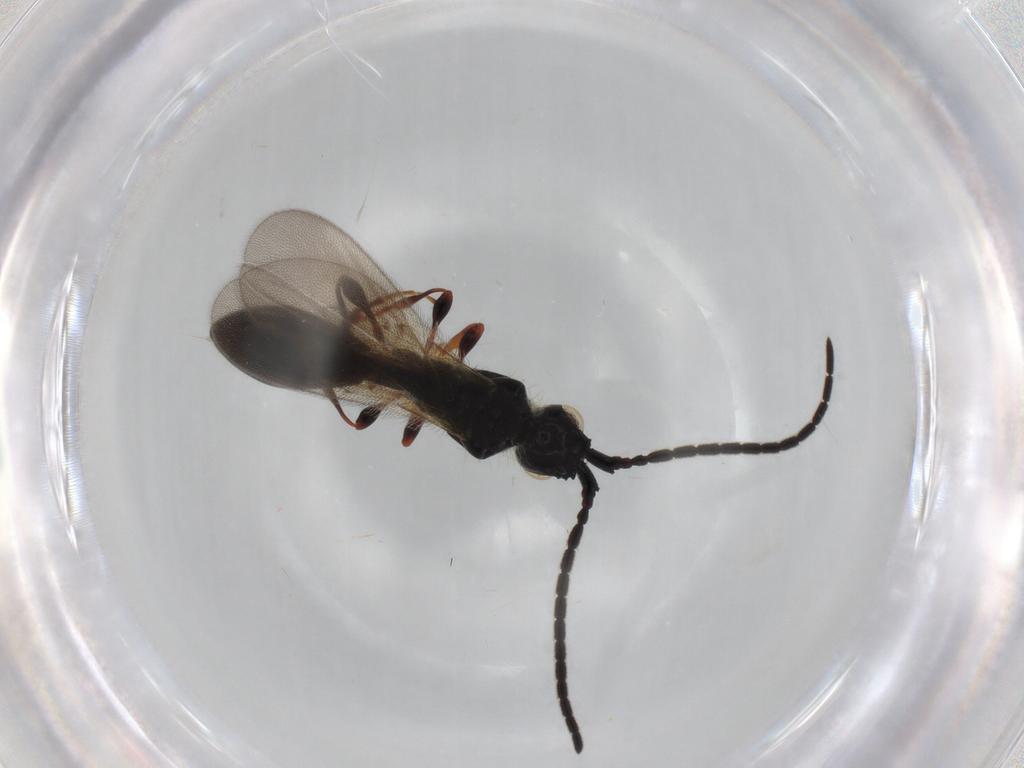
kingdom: Animalia
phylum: Arthropoda
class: Insecta
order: Hymenoptera
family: Diapriidae
